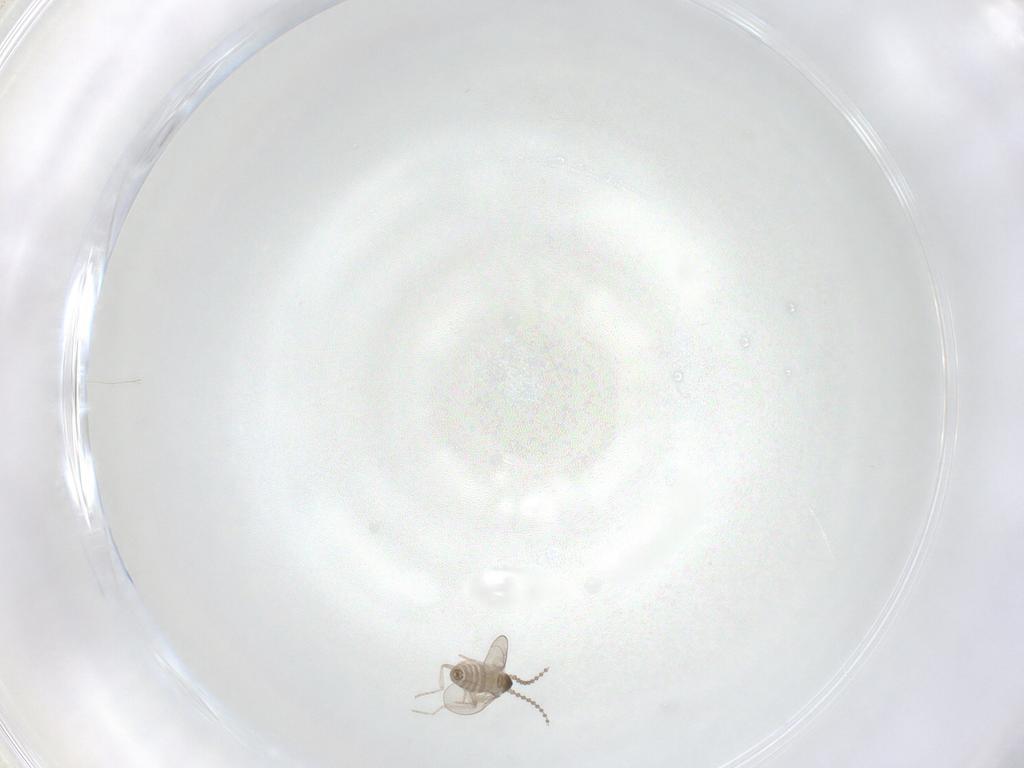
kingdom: Animalia
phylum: Arthropoda
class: Insecta
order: Diptera
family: Cecidomyiidae
